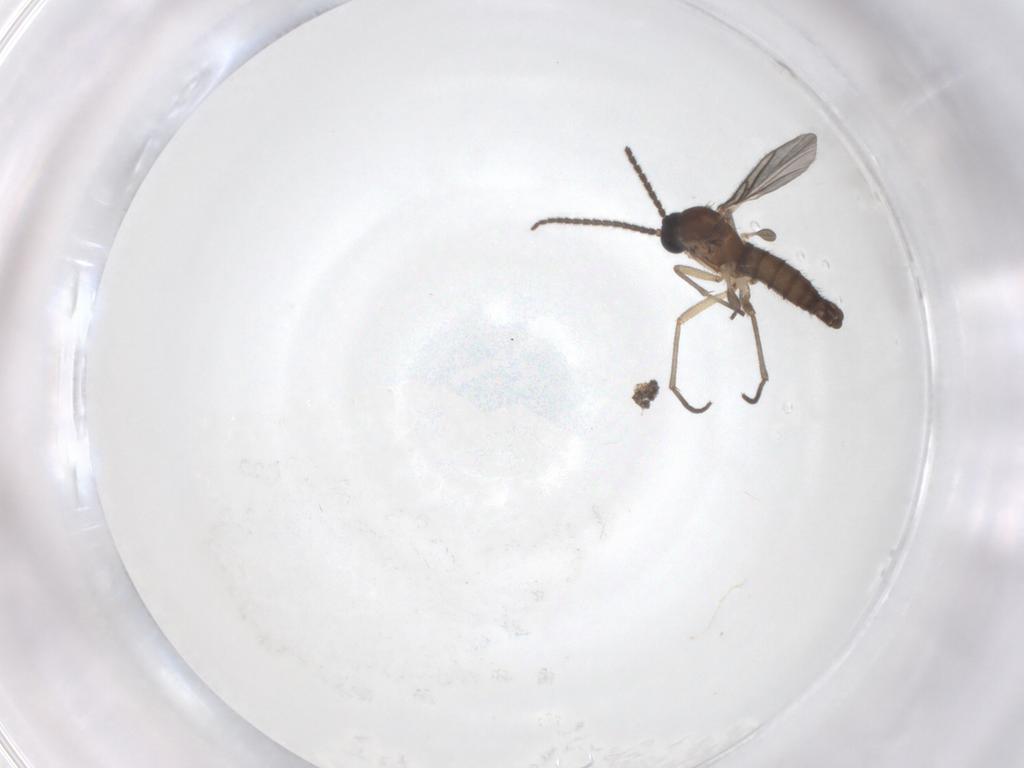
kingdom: Animalia
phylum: Arthropoda
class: Insecta
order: Diptera
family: Sciaridae
